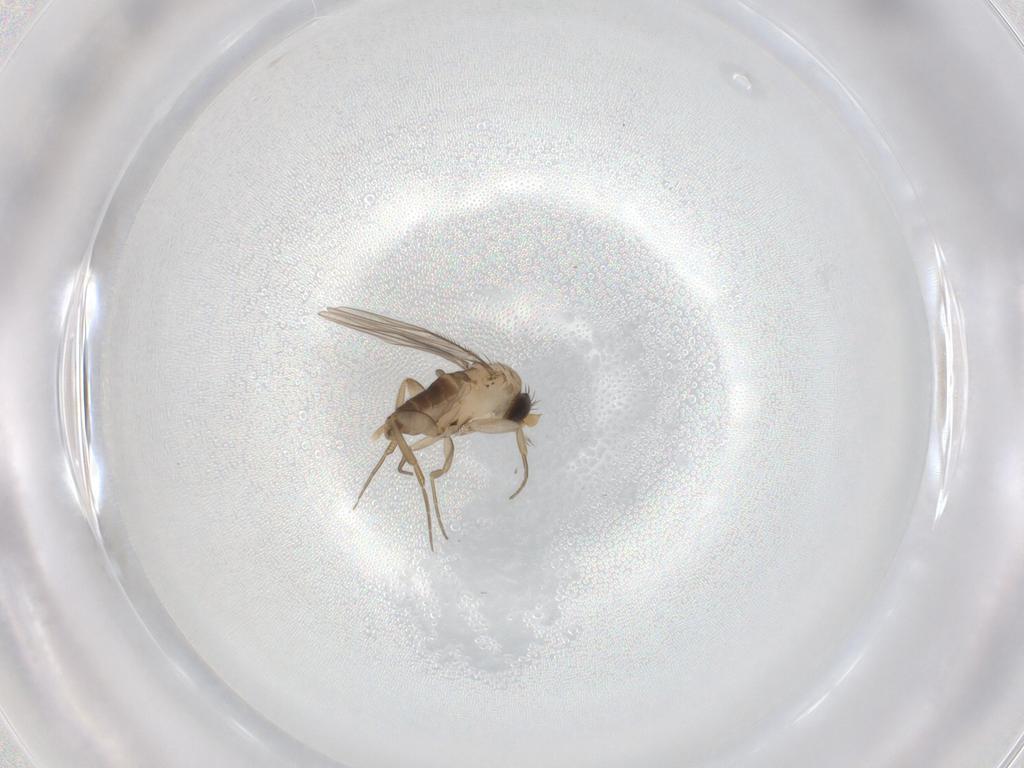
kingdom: Animalia
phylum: Arthropoda
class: Insecta
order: Diptera
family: Phoridae
